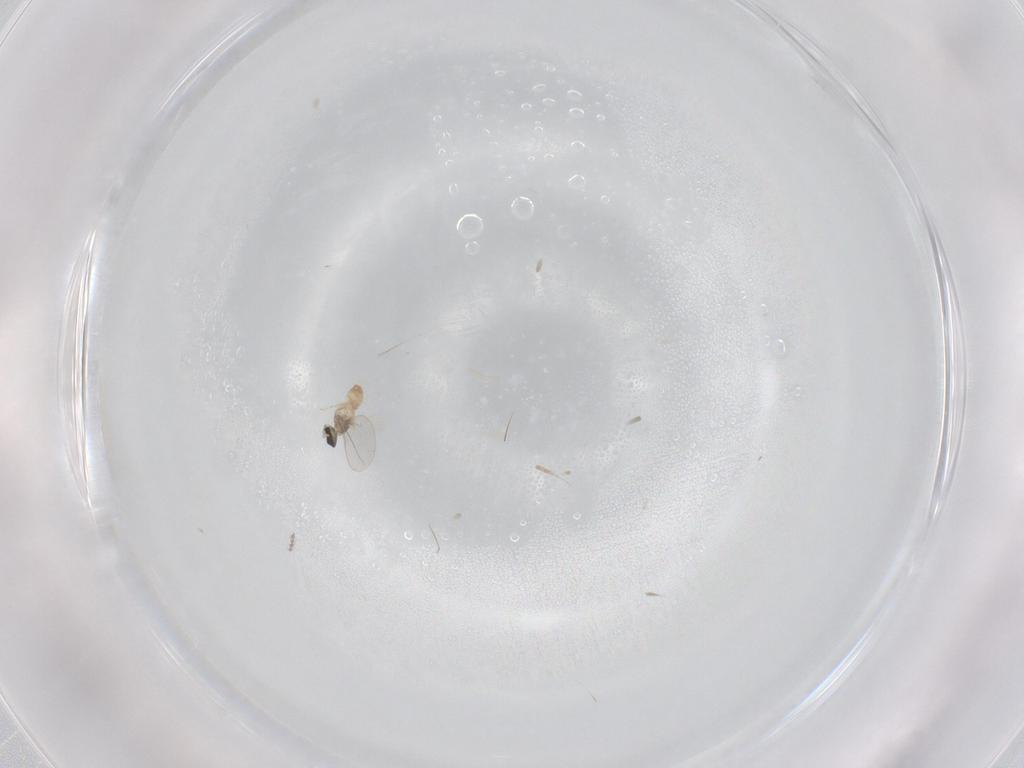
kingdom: Animalia
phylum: Arthropoda
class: Insecta
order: Diptera
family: Cecidomyiidae
